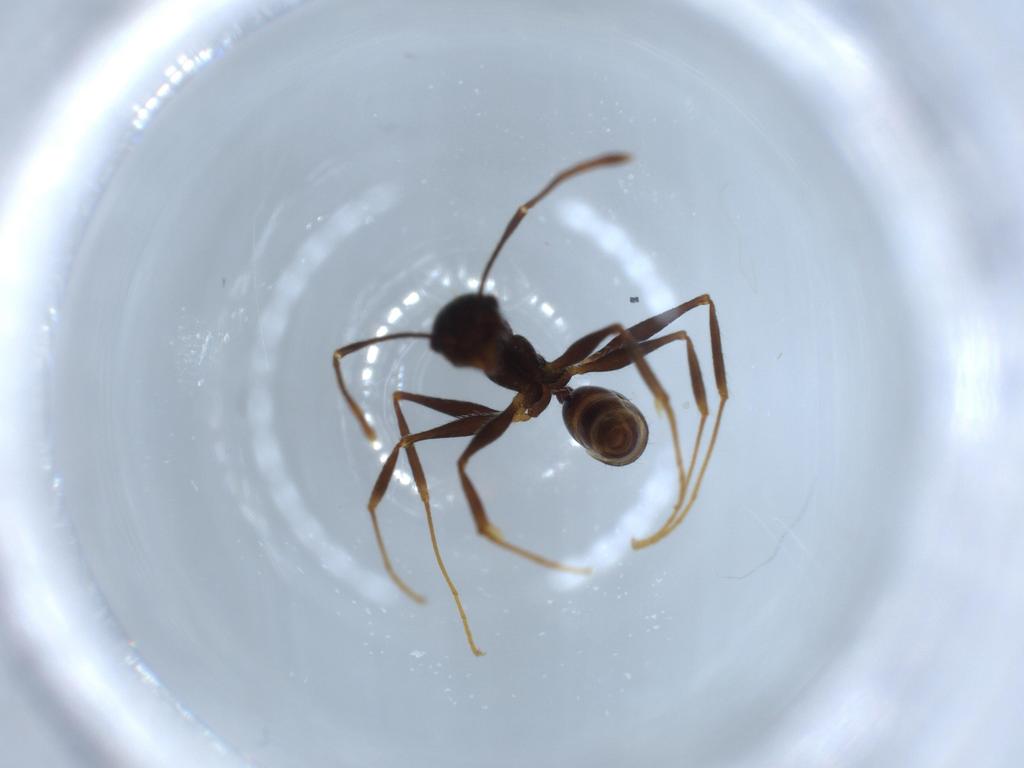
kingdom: Animalia
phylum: Arthropoda
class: Insecta
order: Hymenoptera
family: Formicidae
